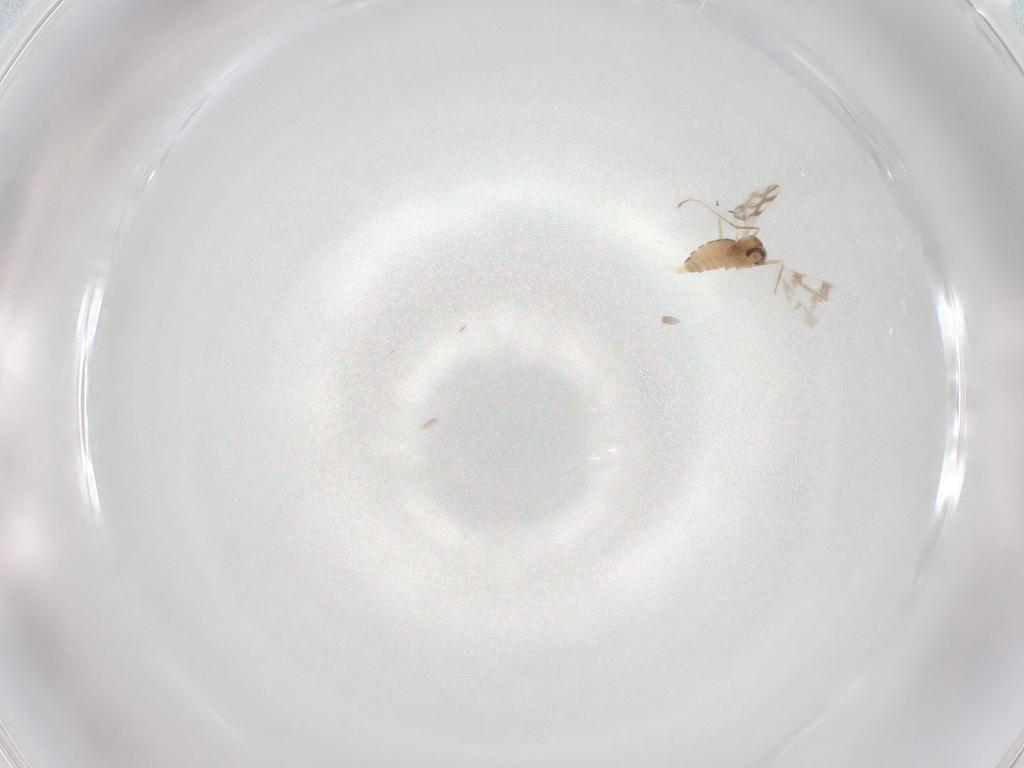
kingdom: Animalia
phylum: Arthropoda
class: Insecta
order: Diptera
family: Cecidomyiidae
